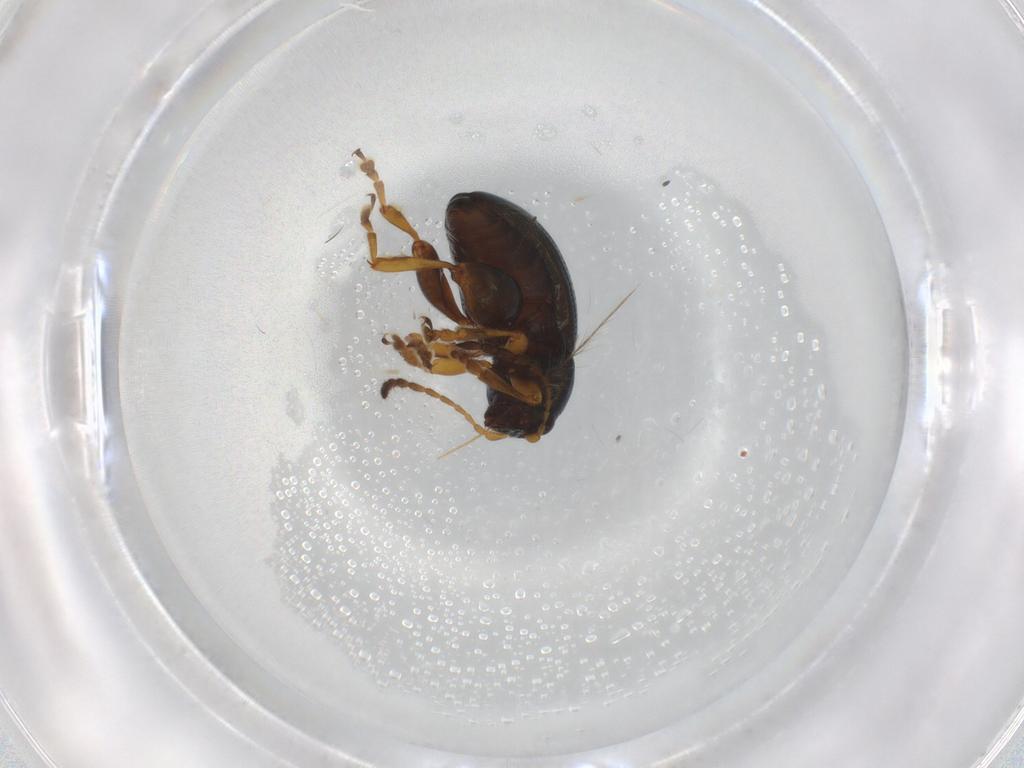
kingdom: Animalia
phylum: Arthropoda
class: Insecta
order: Coleoptera
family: Chrysomelidae
